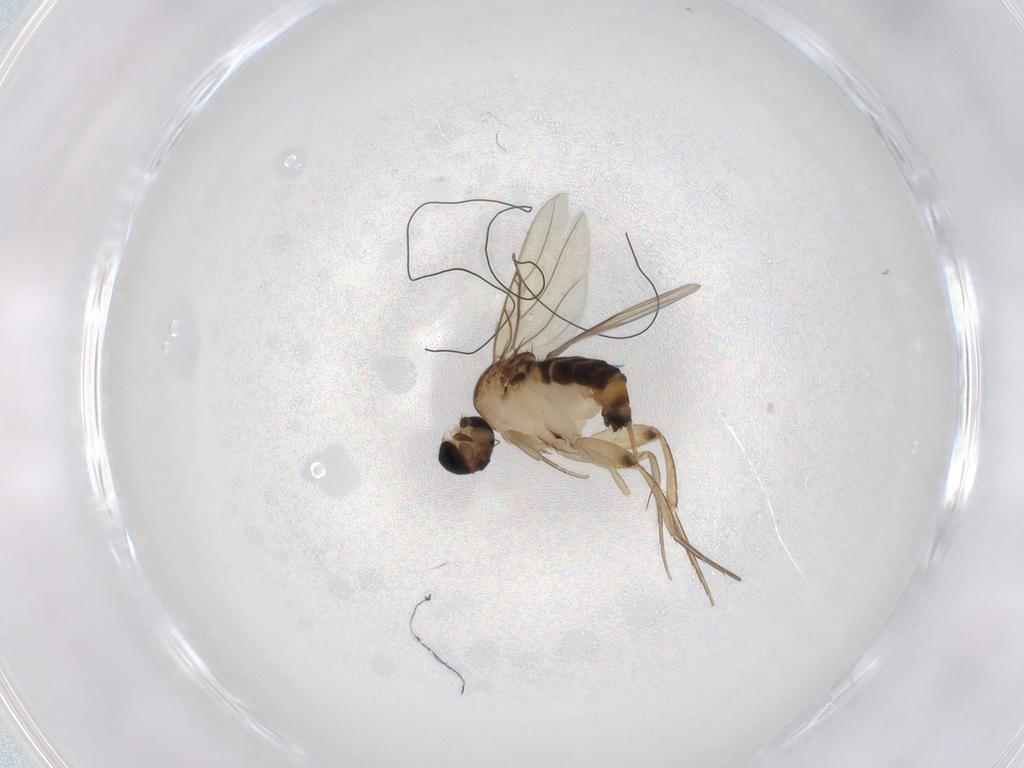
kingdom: Animalia
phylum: Arthropoda
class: Insecta
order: Diptera
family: Phoridae
